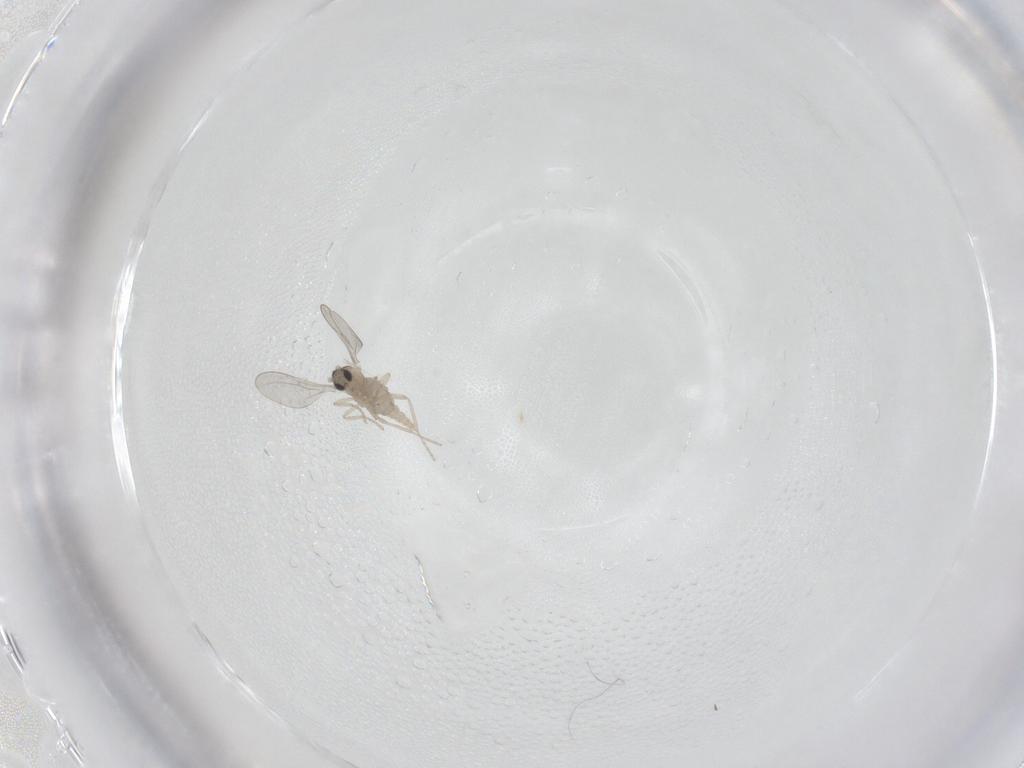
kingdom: Animalia
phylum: Arthropoda
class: Insecta
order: Diptera
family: Cecidomyiidae
